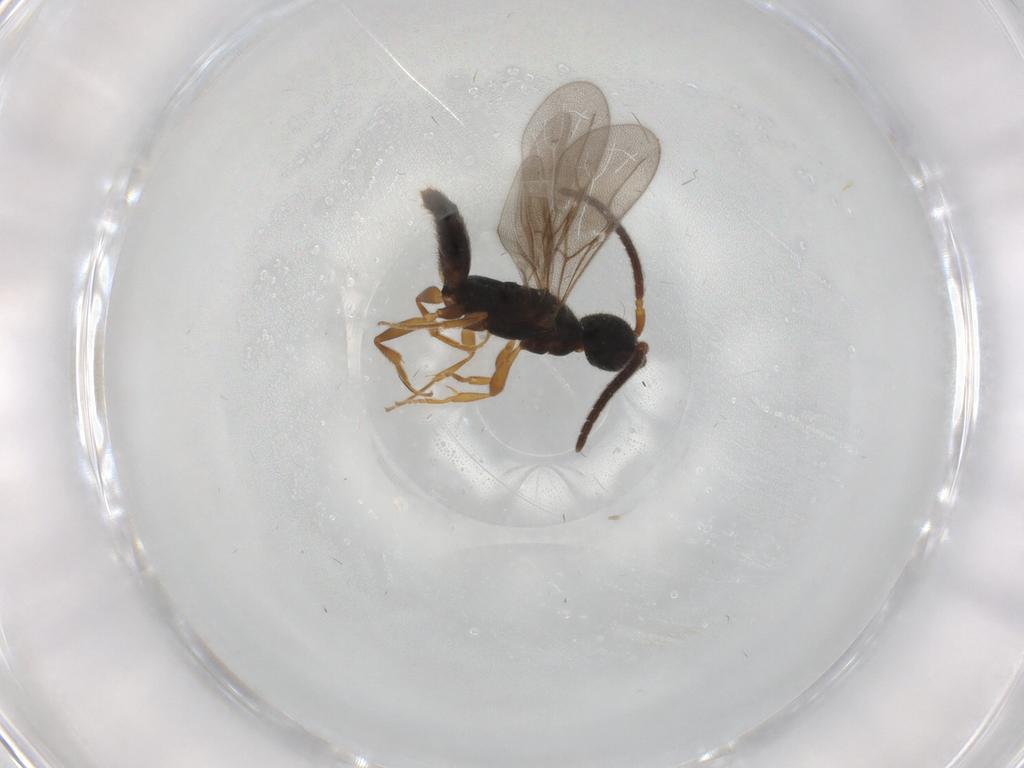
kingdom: Animalia
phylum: Arthropoda
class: Insecta
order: Hymenoptera
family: Bethylidae
